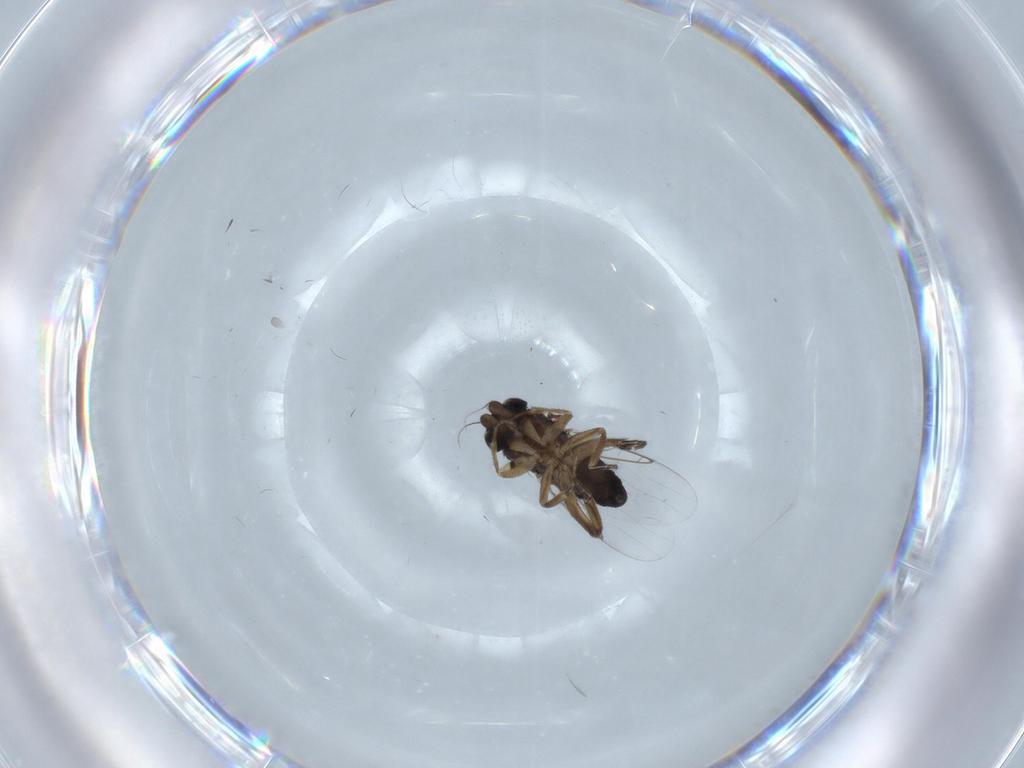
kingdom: Animalia
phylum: Arthropoda
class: Insecta
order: Diptera
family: Phoridae
